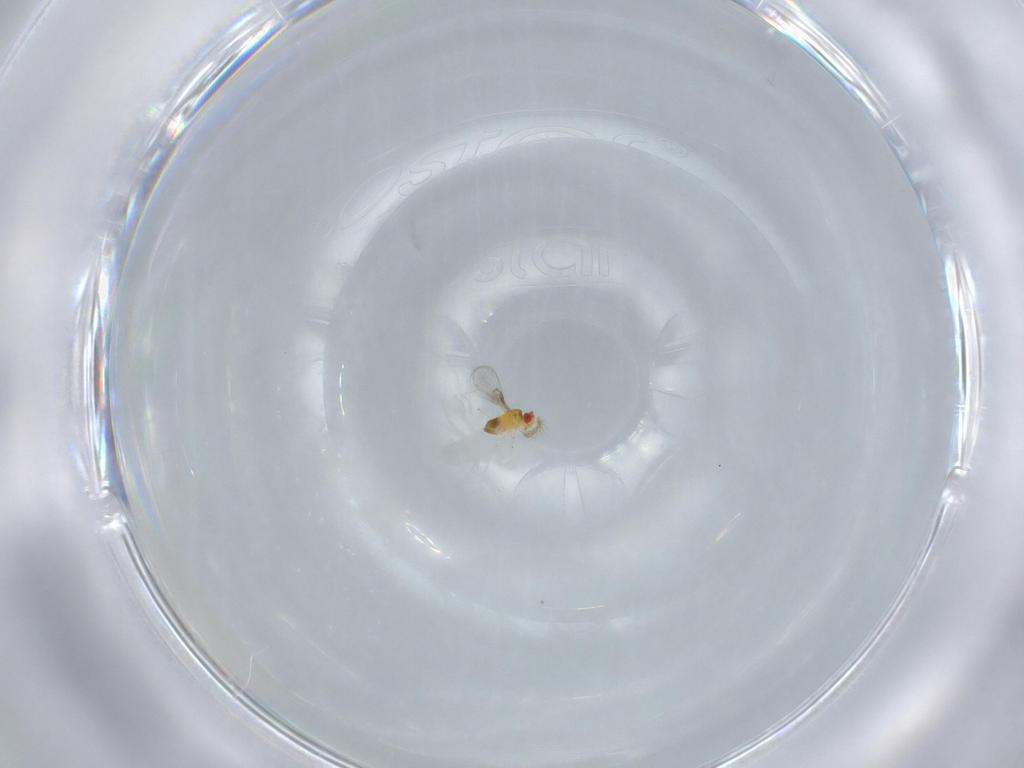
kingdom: Animalia
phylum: Arthropoda
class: Insecta
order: Hymenoptera
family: Trichogrammatidae
